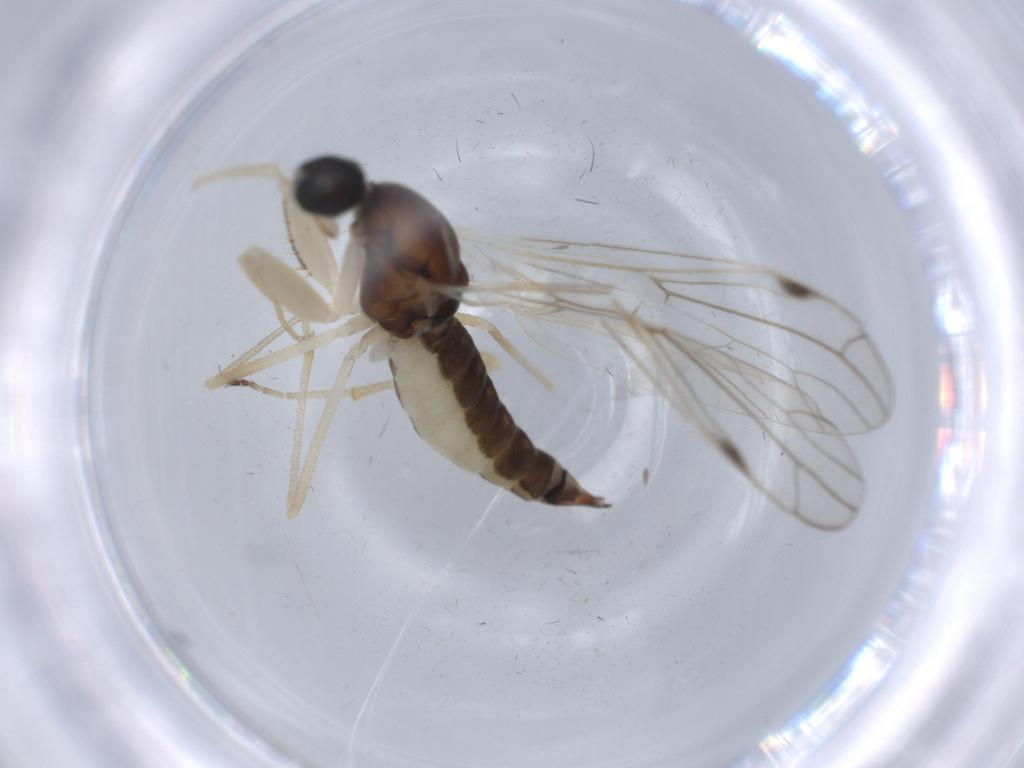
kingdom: Animalia
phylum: Arthropoda
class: Insecta
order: Diptera
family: Empididae
